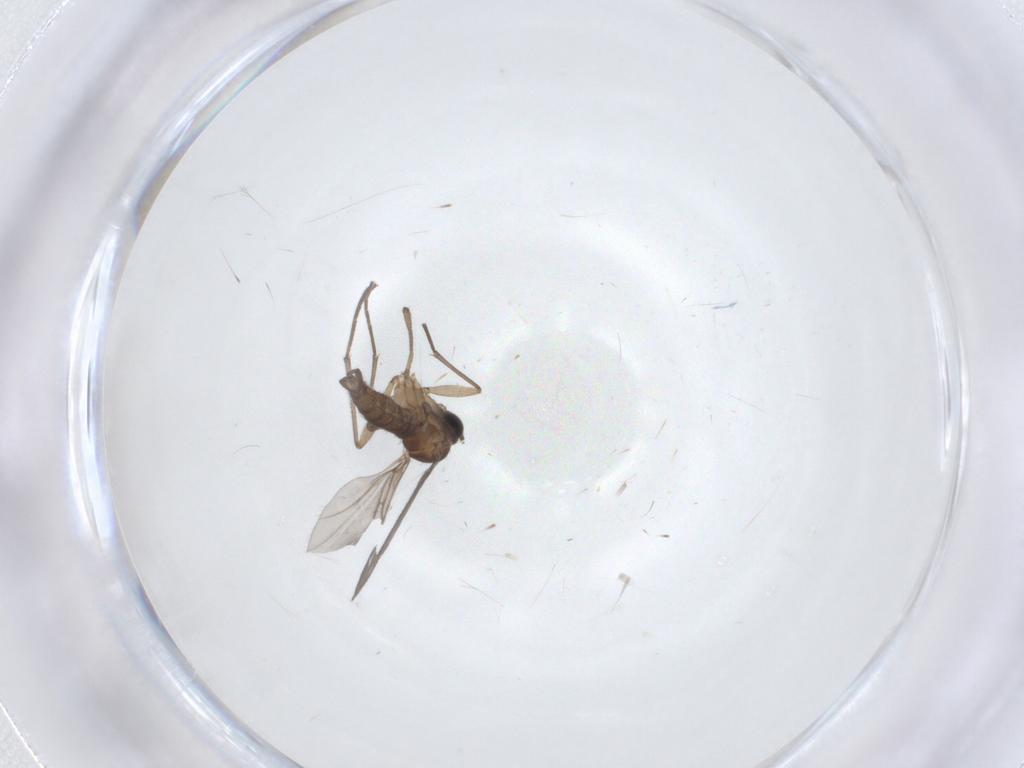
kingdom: Animalia
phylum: Arthropoda
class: Insecta
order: Diptera
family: Sciaridae
